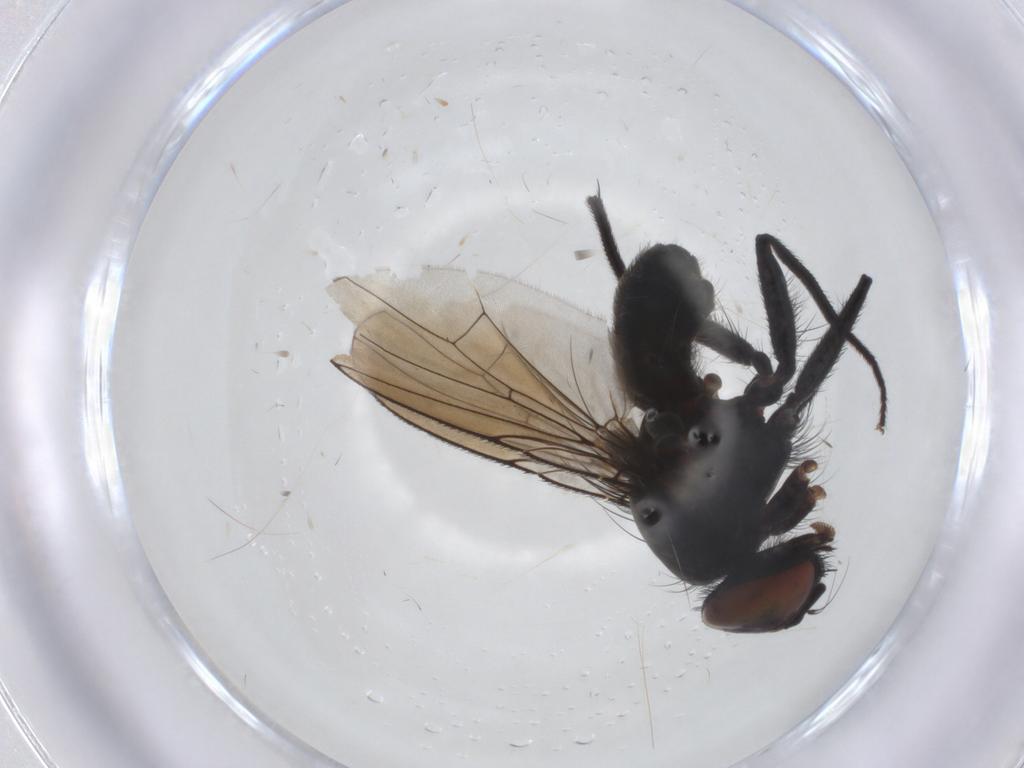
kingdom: Animalia
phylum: Arthropoda
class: Insecta
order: Diptera
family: Muscidae
